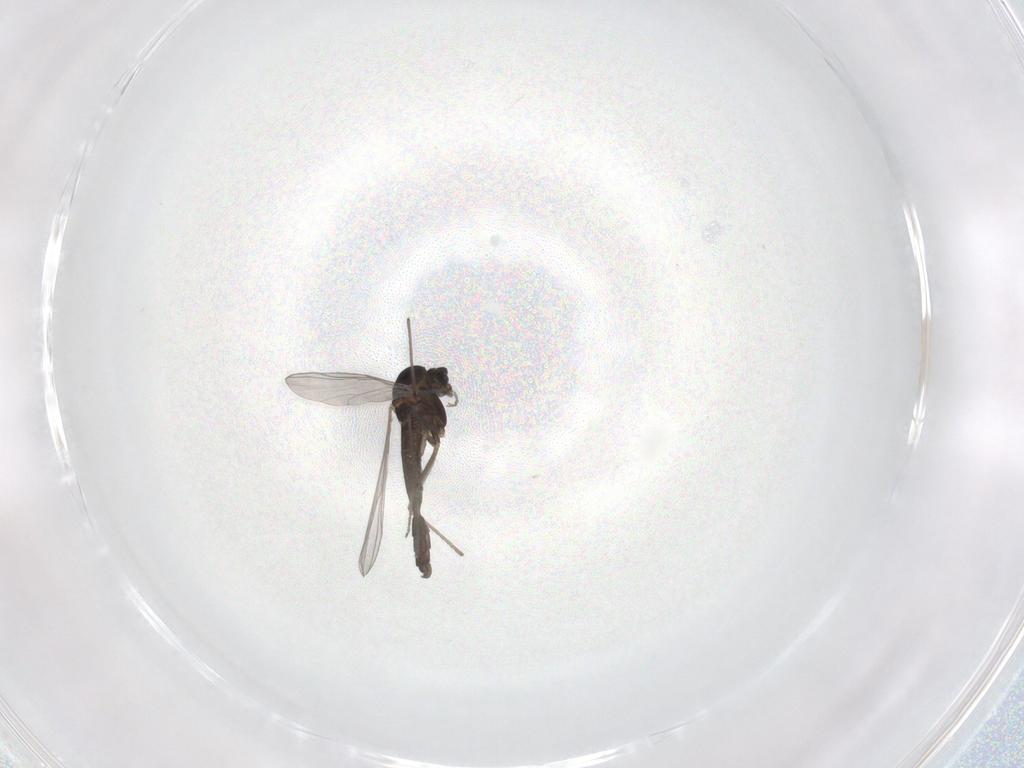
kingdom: Animalia
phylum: Arthropoda
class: Insecta
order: Diptera
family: Chironomidae
